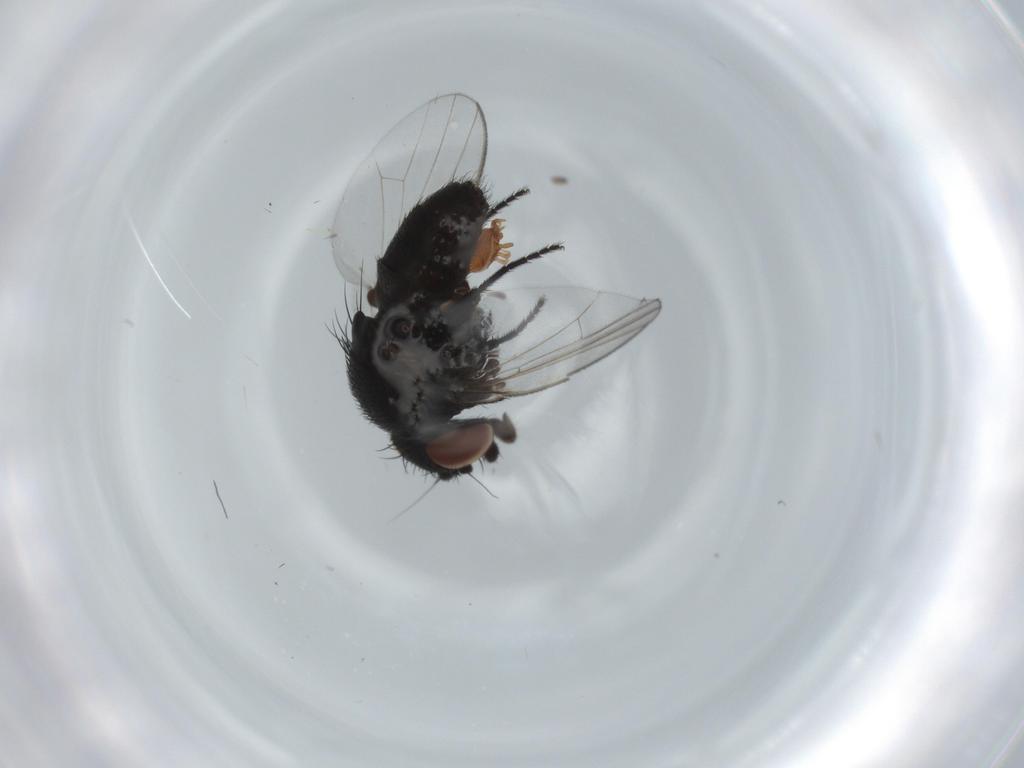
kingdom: Animalia
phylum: Arthropoda
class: Insecta
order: Diptera
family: Milichiidae
